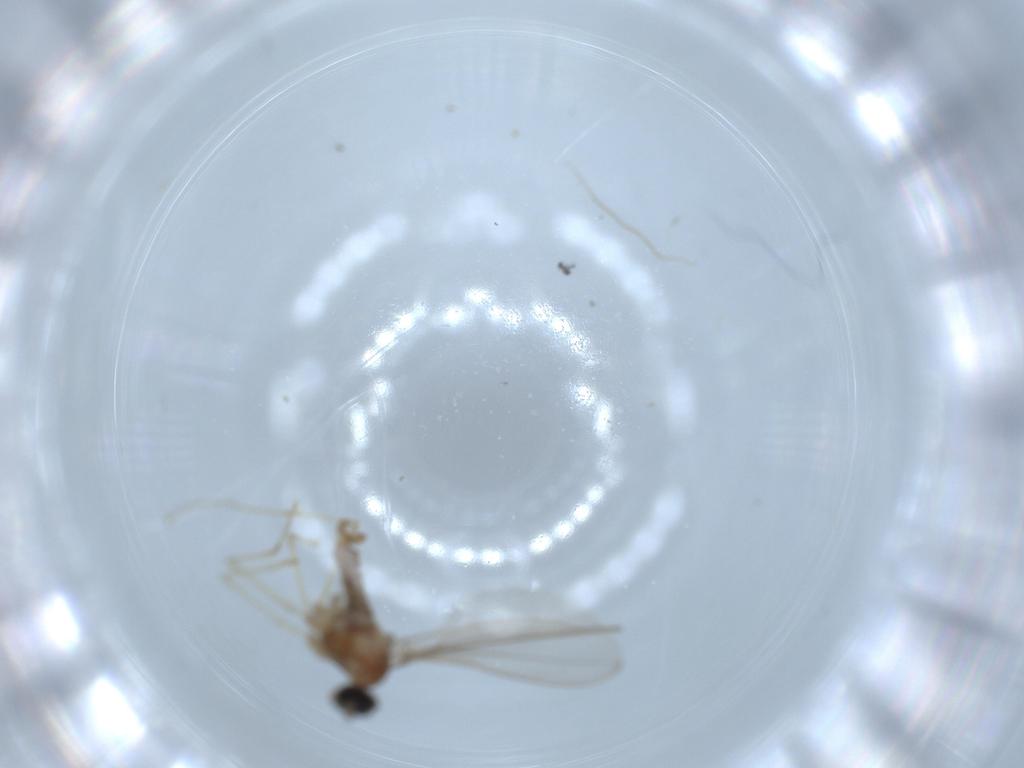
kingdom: Animalia
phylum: Arthropoda
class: Insecta
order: Diptera
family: Cecidomyiidae
